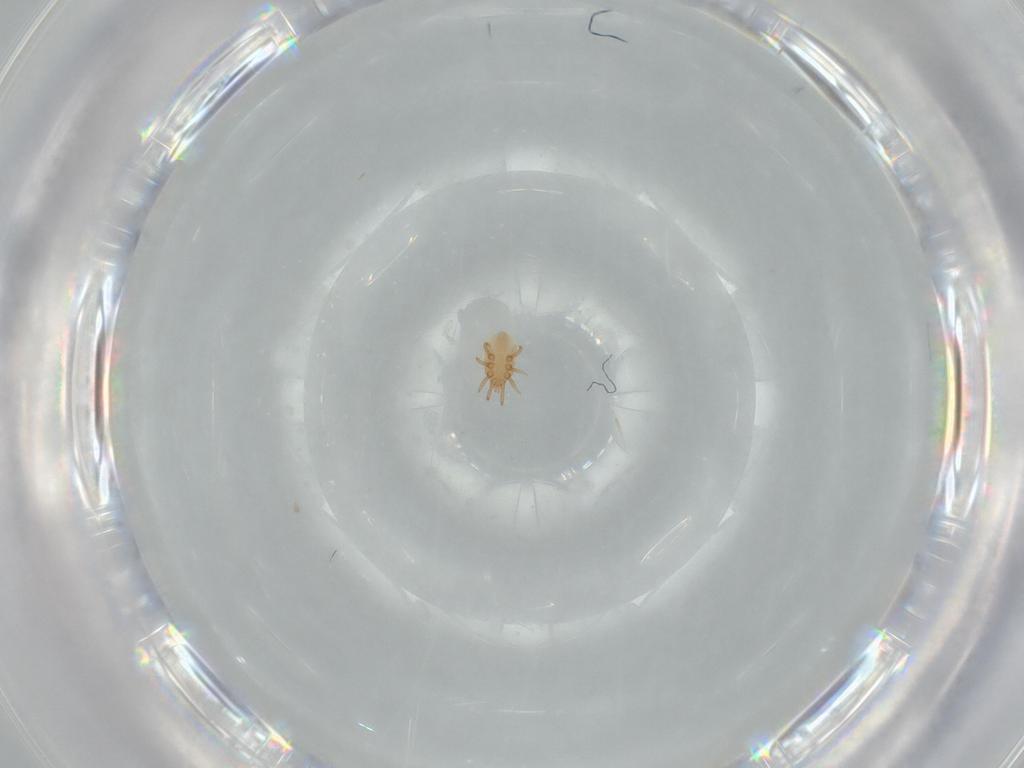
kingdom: Animalia
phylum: Arthropoda
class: Arachnida
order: Mesostigmata
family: Dinychidae
